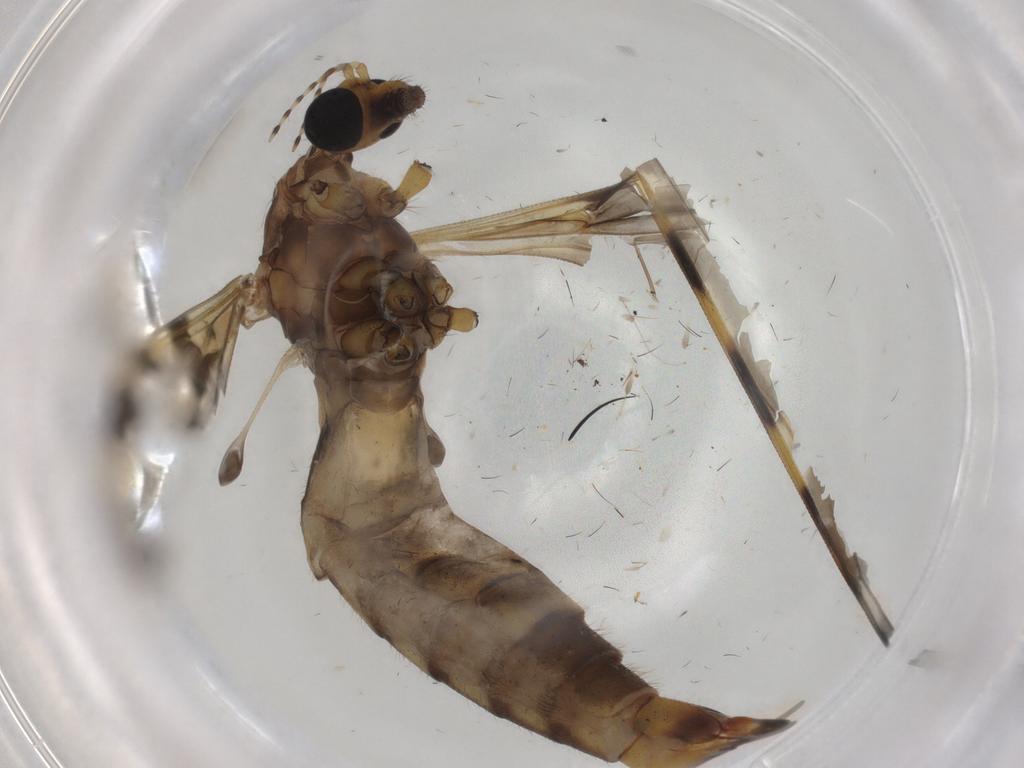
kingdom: Animalia
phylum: Arthropoda
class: Insecta
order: Diptera
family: Tipulidae
